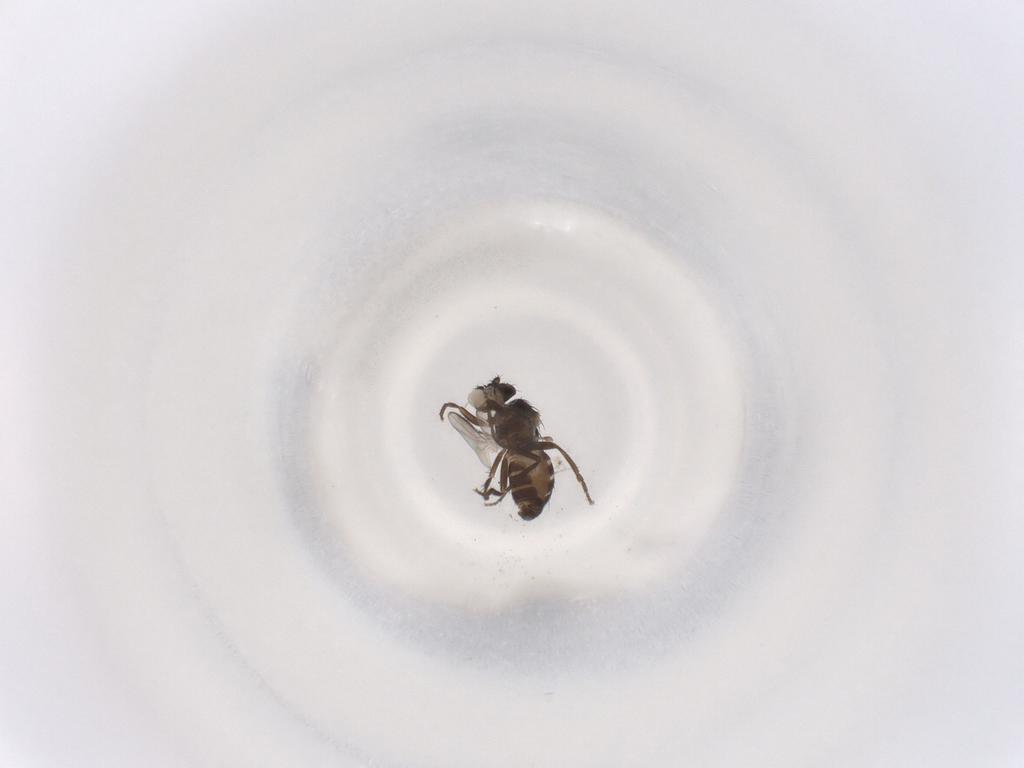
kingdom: Animalia
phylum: Arthropoda
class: Insecta
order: Diptera
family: Sphaeroceridae
